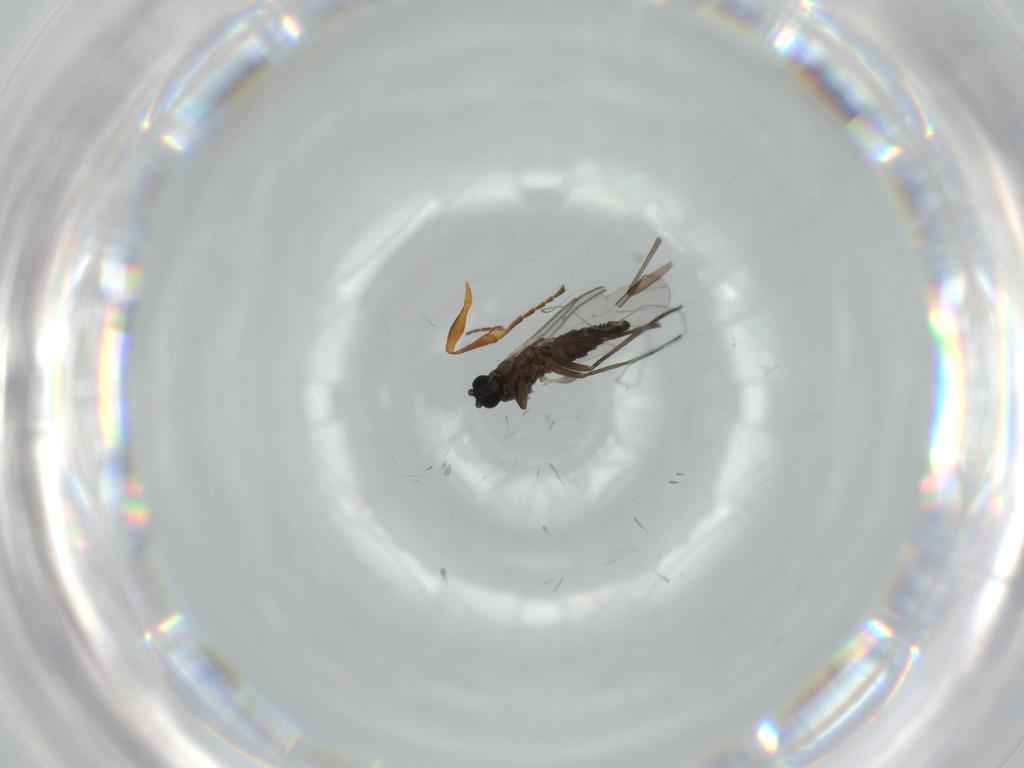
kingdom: Animalia
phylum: Arthropoda
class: Insecta
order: Diptera
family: Sciaridae
